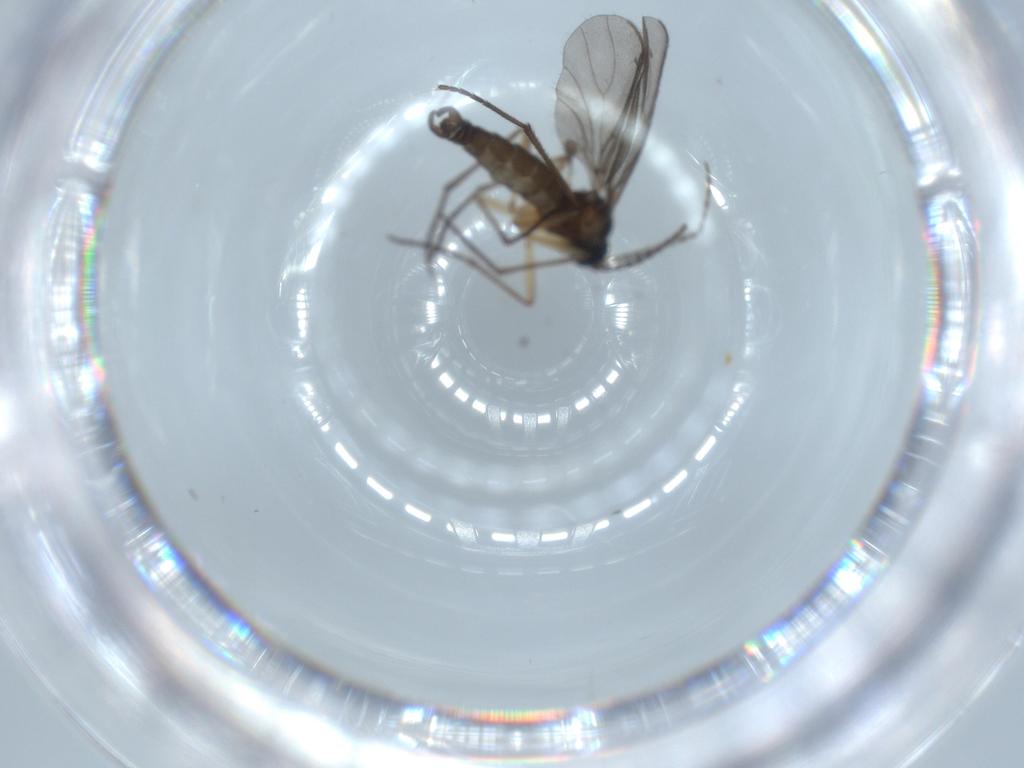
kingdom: Animalia
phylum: Arthropoda
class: Insecta
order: Diptera
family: Sciaridae
